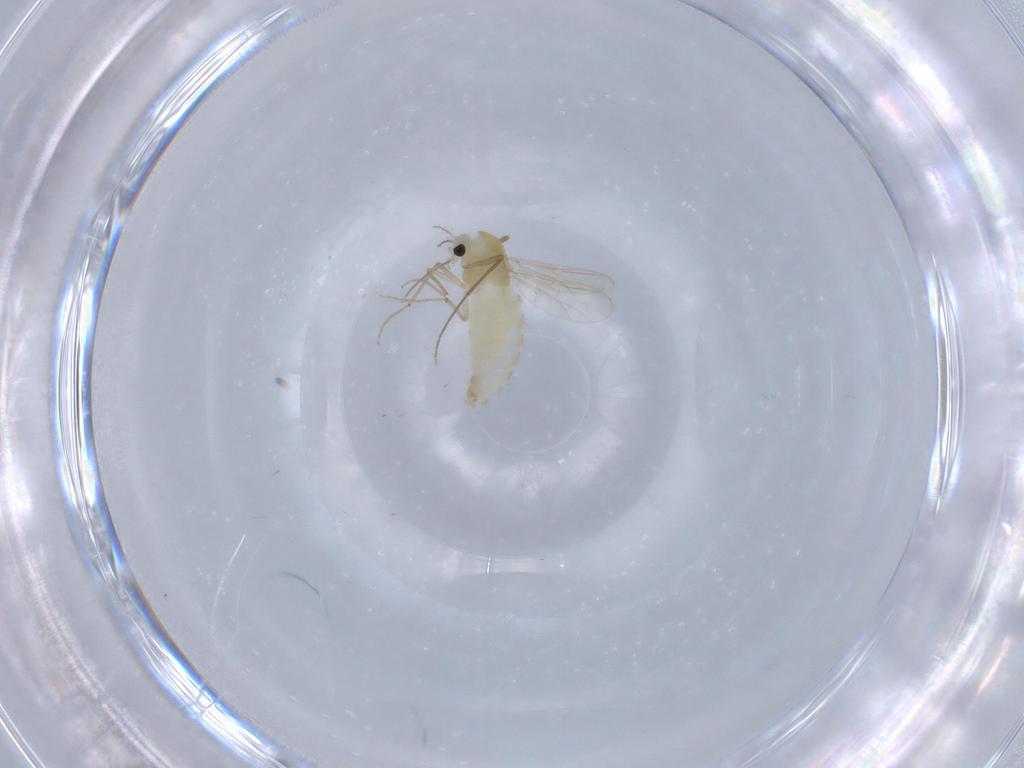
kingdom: Animalia
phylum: Arthropoda
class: Insecta
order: Diptera
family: Chironomidae
